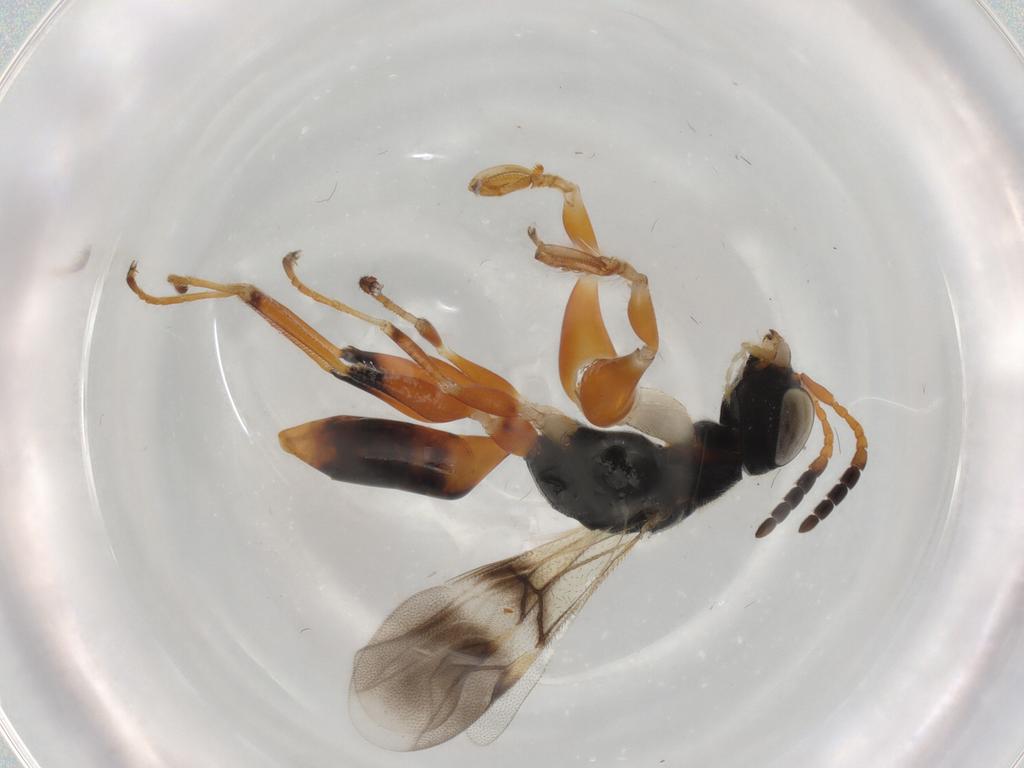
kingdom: Animalia
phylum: Arthropoda
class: Insecta
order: Hymenoptera
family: Dryinidae
